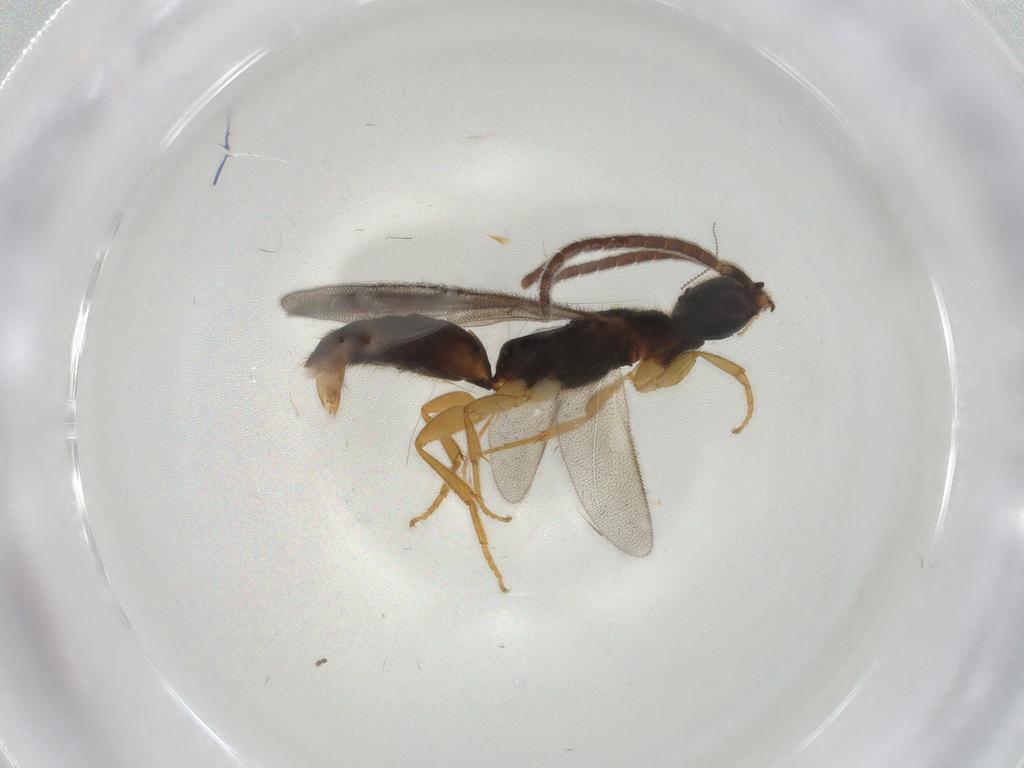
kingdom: Animalia
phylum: Arthropoda
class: Insecta
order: Hymenoptera
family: Bethylidae
